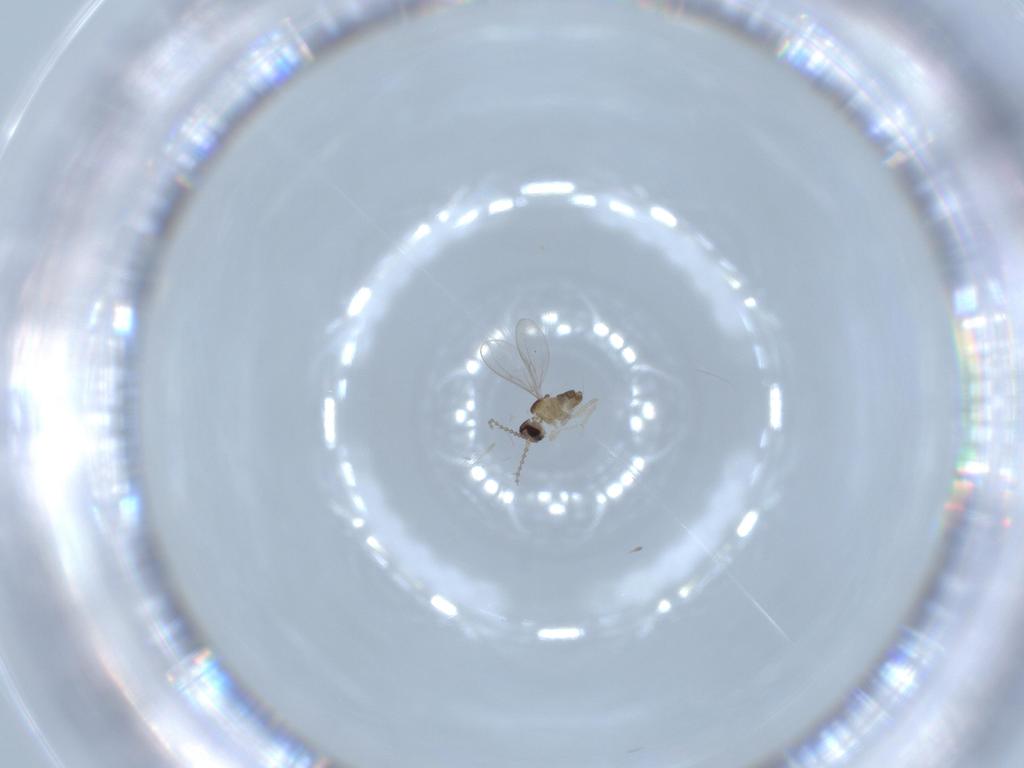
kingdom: Animalia
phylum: Arthropoda
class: Insecta
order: Diptera
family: Cecidomyiidae
